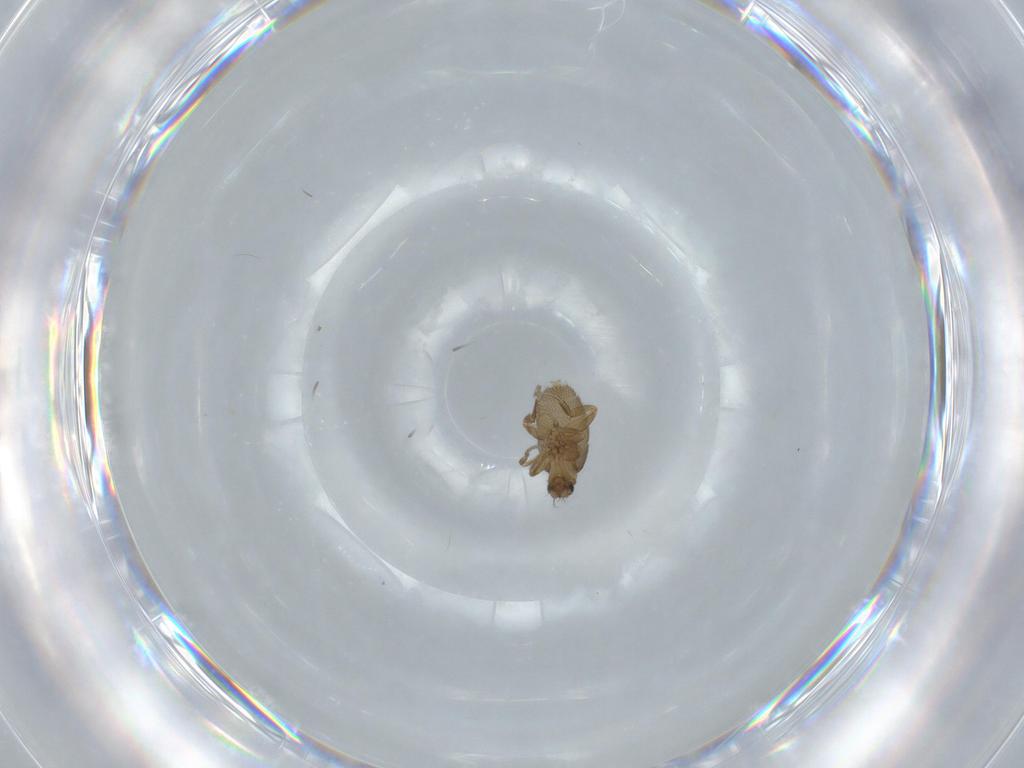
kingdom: Animalia
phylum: Arthropoda
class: Insecta
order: Diptera
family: Phoridae
